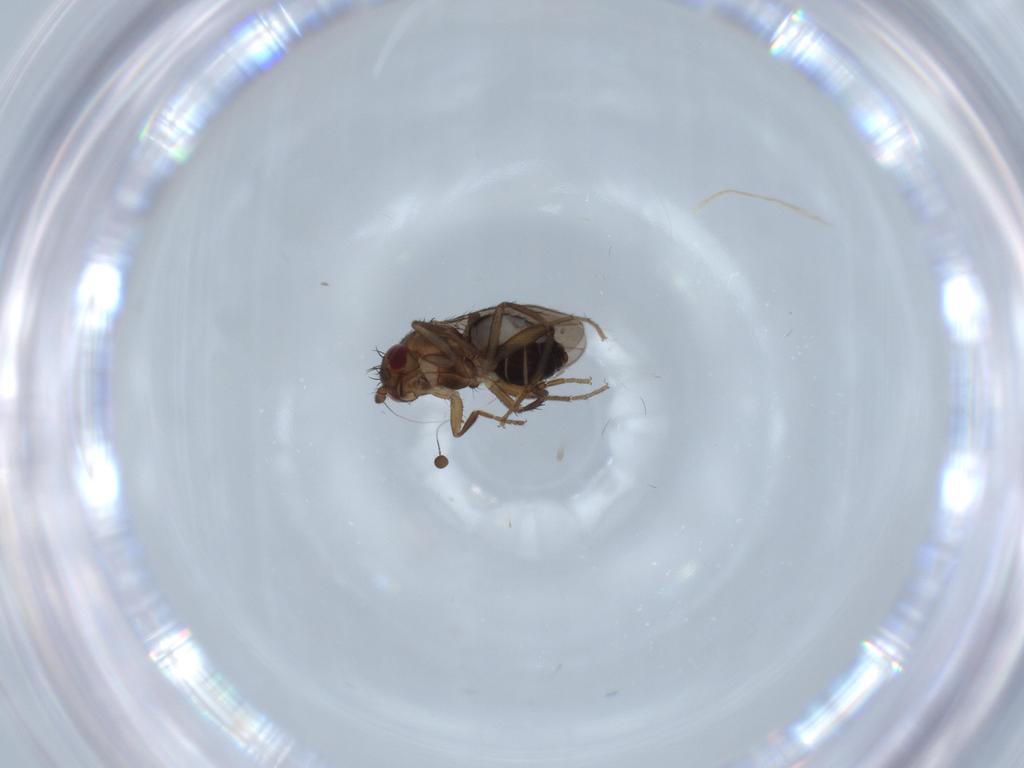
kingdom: Animalia
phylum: Arthropoda
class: Insecta
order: Diptera
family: Sphaeroceridae
